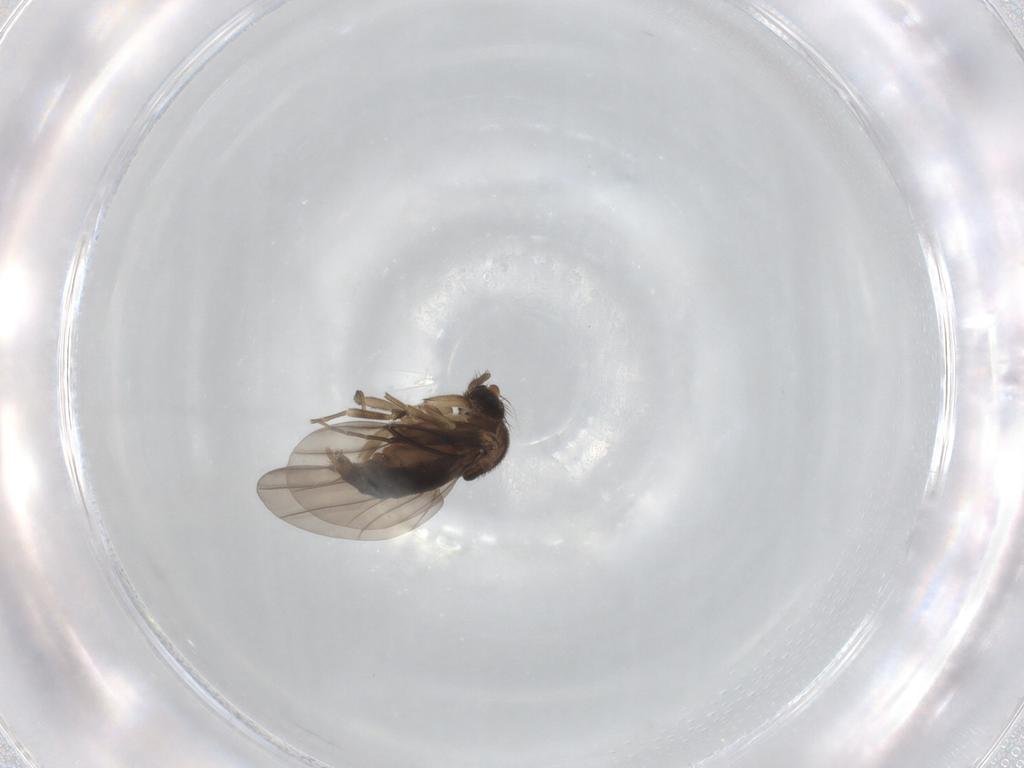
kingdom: Animalia
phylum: Arthropoda
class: Insecta
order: Diptera
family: Phoridae
